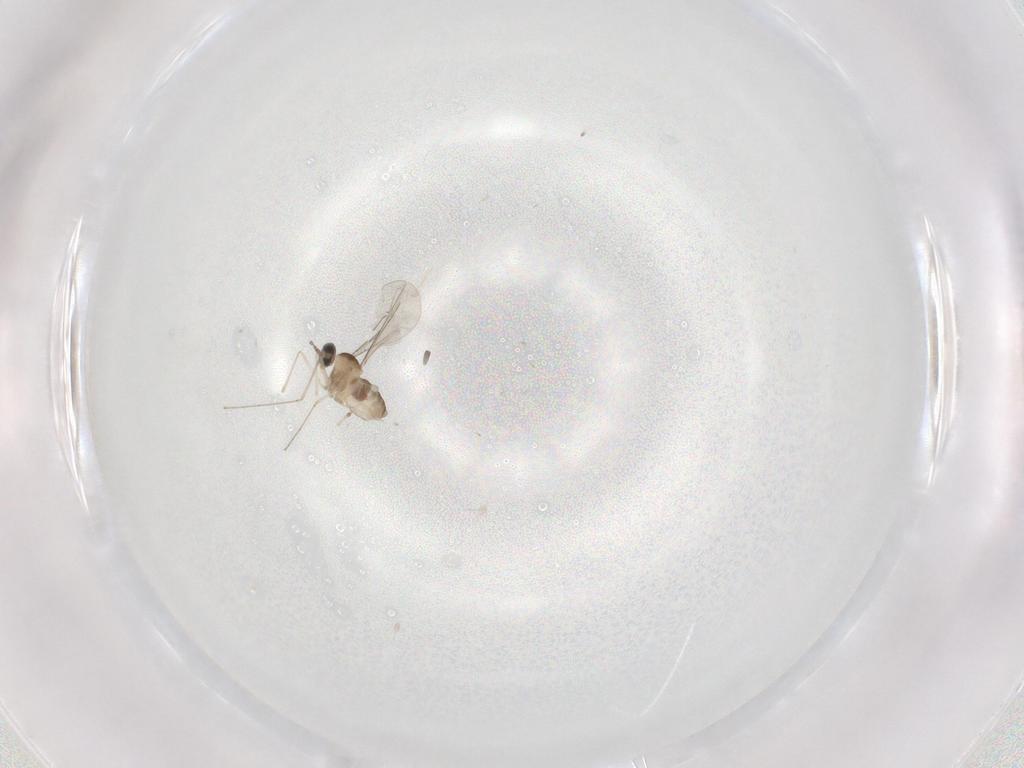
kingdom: Animalia
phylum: Arthropoda
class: Insecta
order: Diptera
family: Cecidomyiidae
